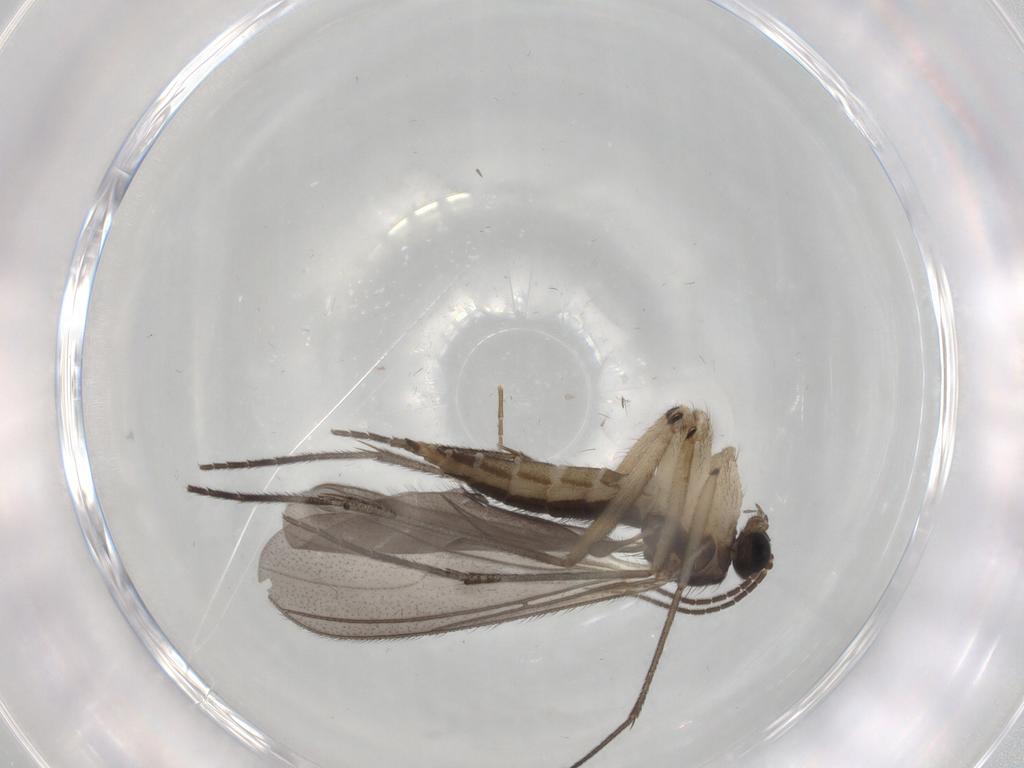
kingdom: Animalia
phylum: Arthropoda
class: Insecta
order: Diptera
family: Sciaridae
